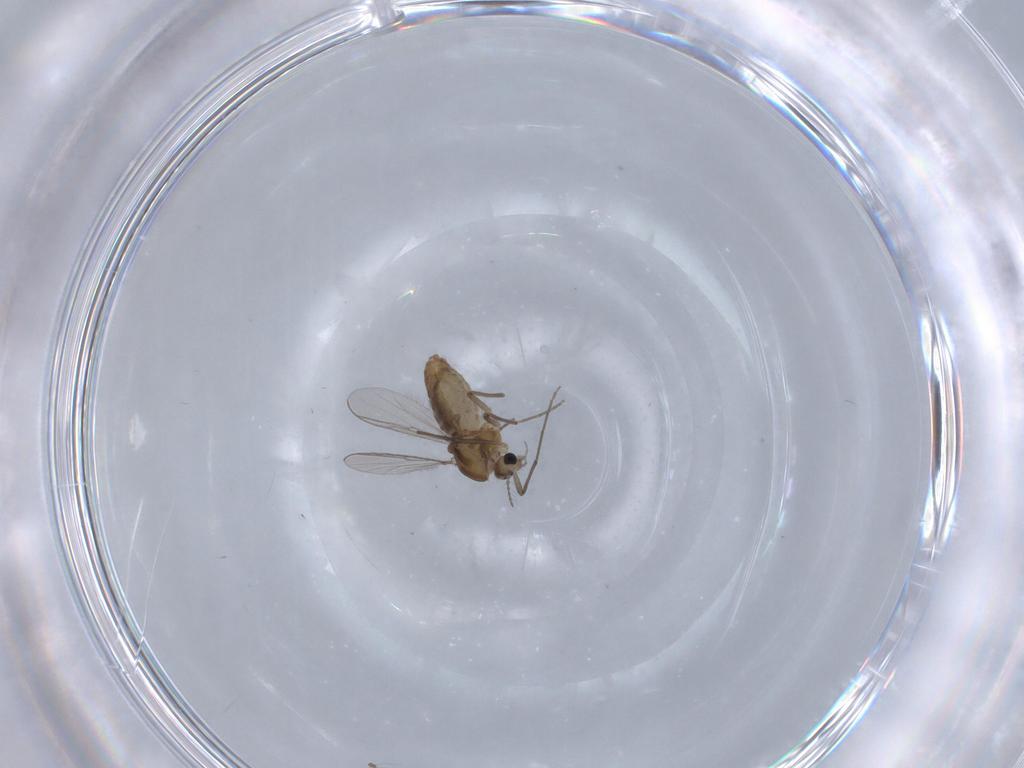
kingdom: Animalia
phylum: Arthropoda
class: Insecta
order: Diptera
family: Chironomidae
